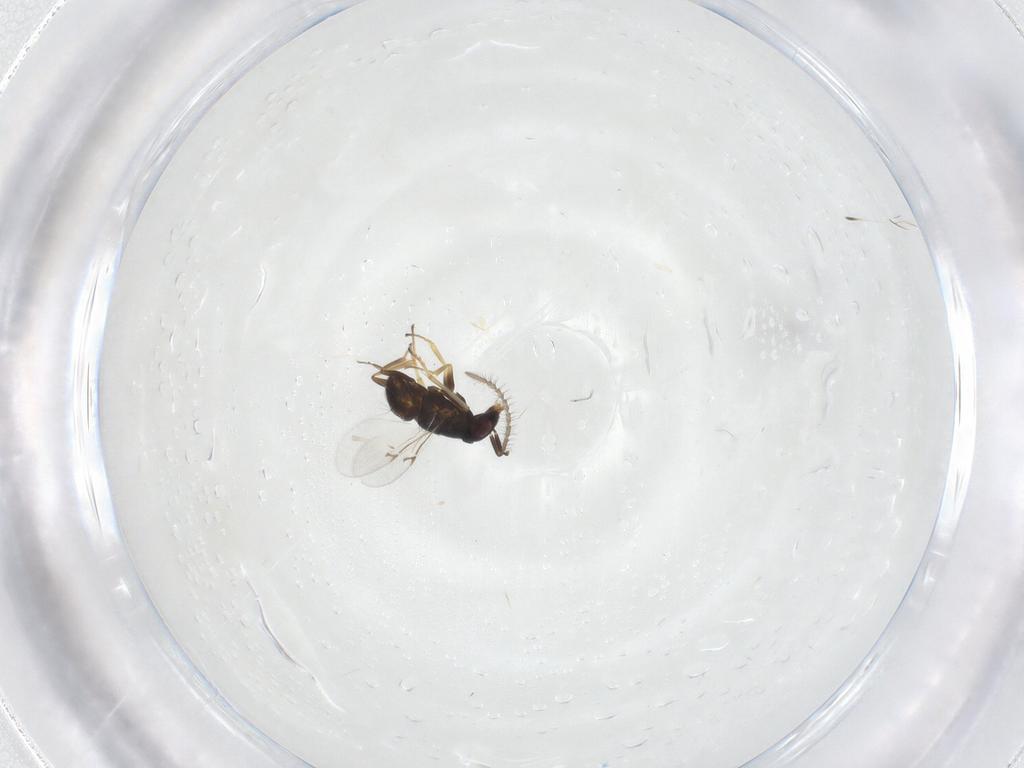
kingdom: Animalia
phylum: Arthropoda
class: Insecta
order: Hymenoptera
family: Encyrtidae
